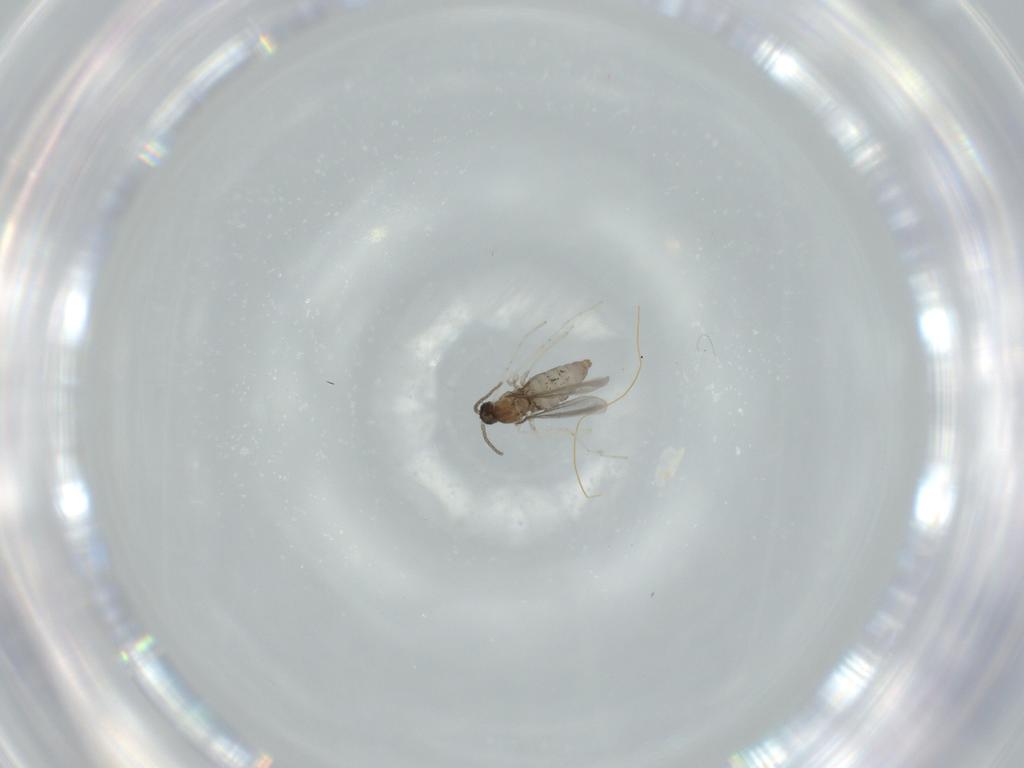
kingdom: Animalia
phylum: Arthropoda
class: Insecta
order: Diptera
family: Cecidomyiidae
